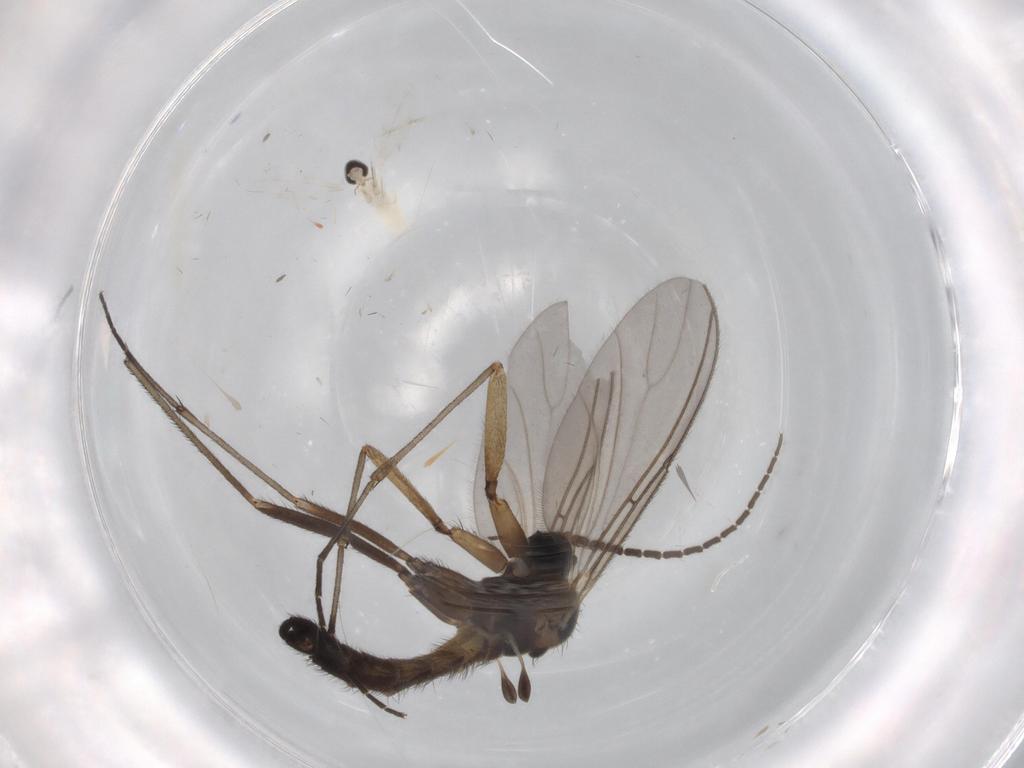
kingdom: Animalia
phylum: Arthropoda
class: Insecta
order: Diptera
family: Sciaridae
